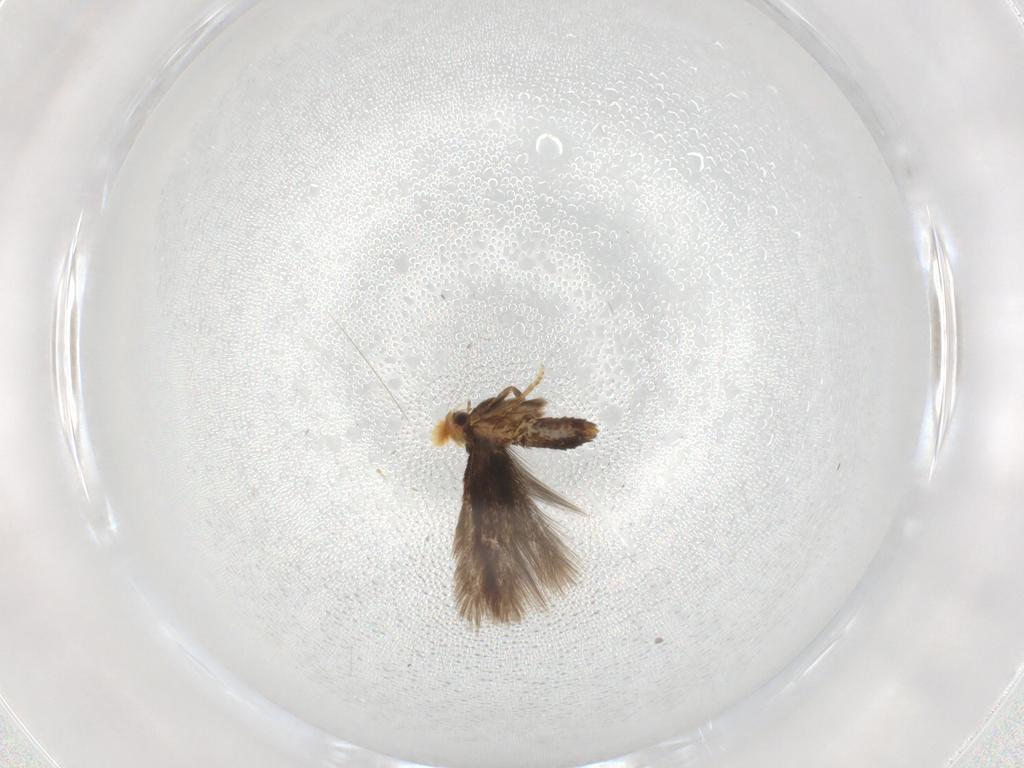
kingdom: Animalia
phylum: Arthropoda
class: Insecta
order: Lepidoptera
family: Nepticulidae
